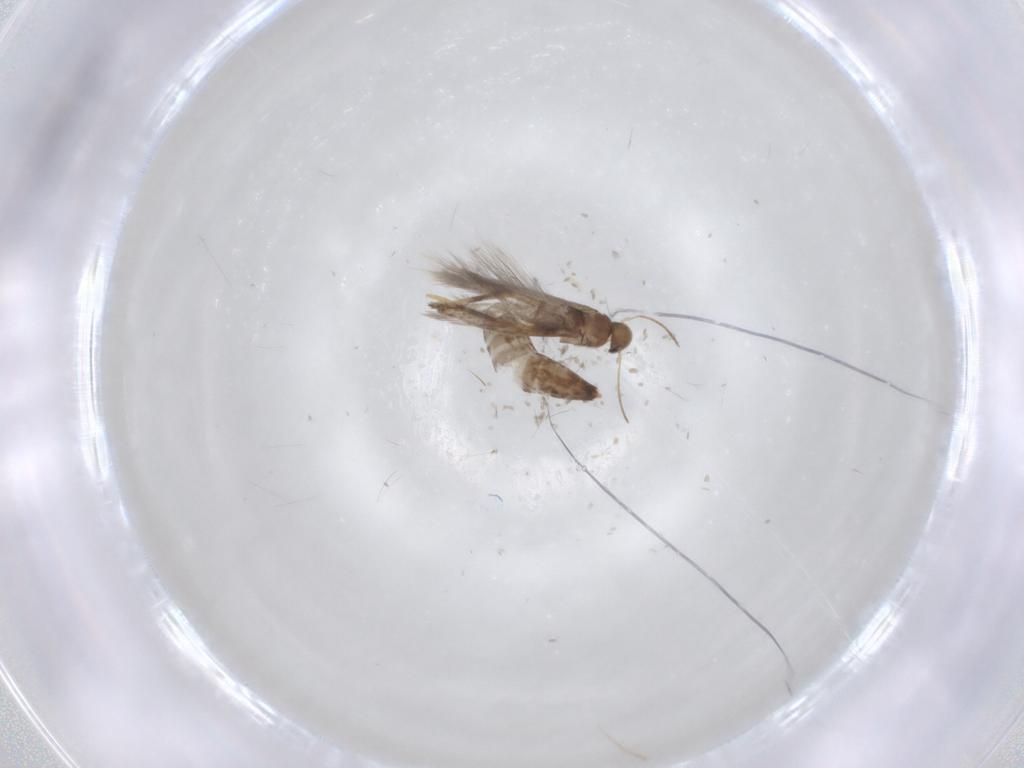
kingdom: Animalia
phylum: Arthropoda
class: Insecta
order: Lepidoptera
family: Heliozelidae
